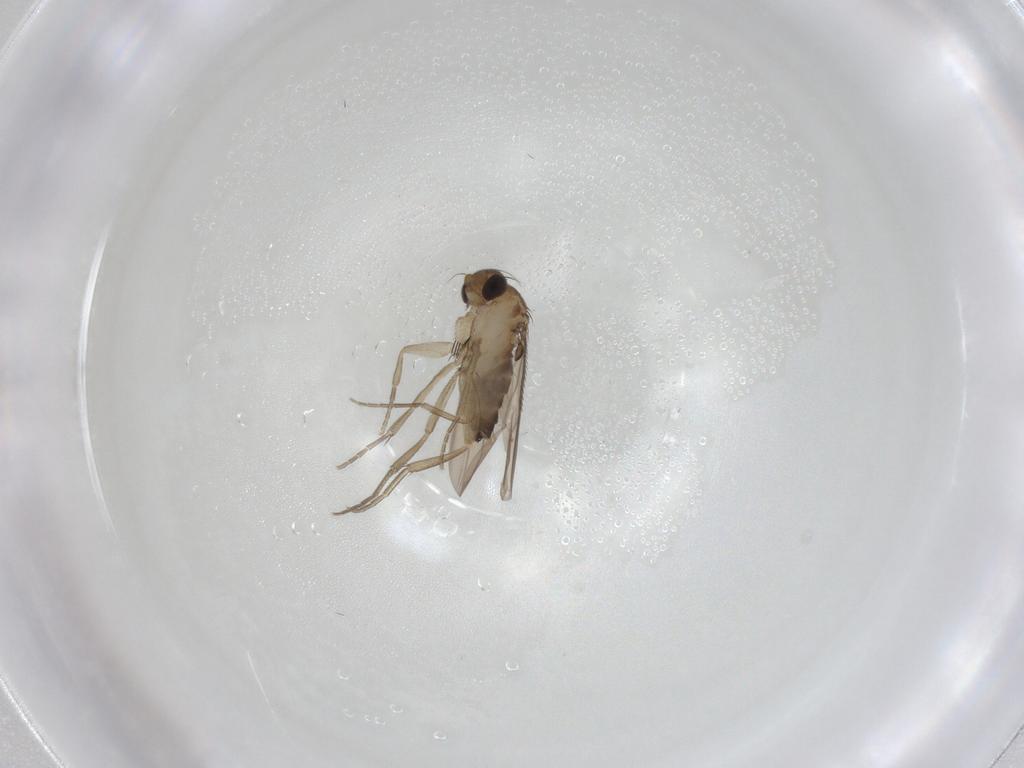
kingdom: Animalia
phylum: Arthropoda
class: Insecta
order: Diptera
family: Phoridae
